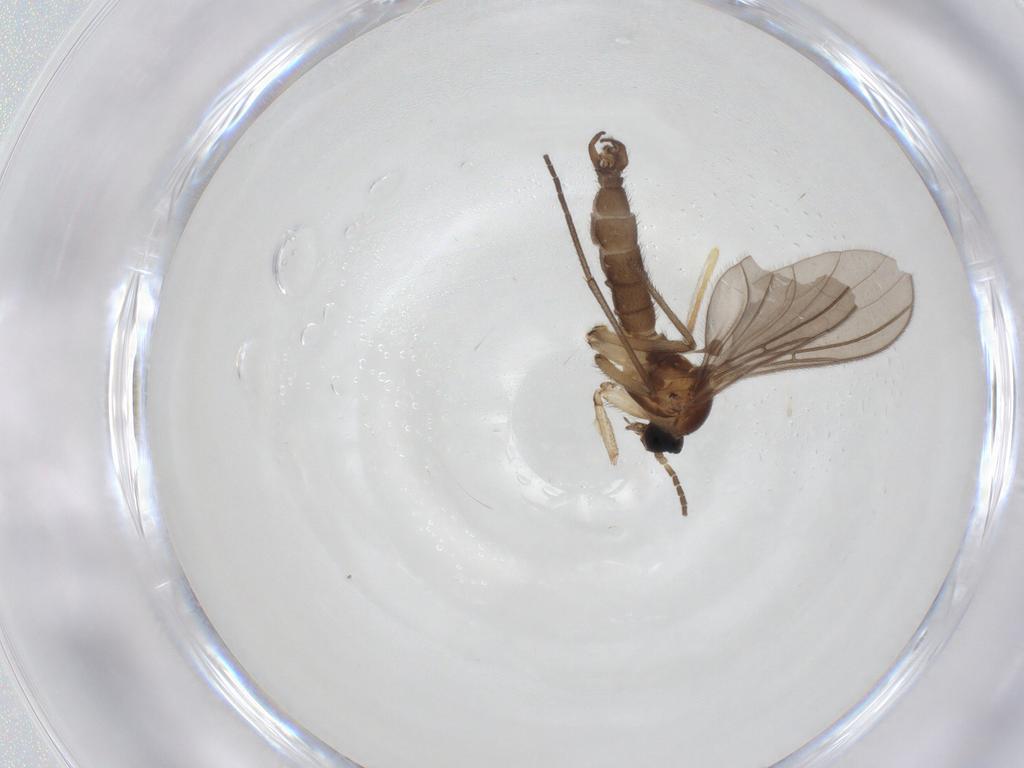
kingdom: Animalia
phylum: Arthropoda
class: Insecta
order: Diptera
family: Sciaridae
